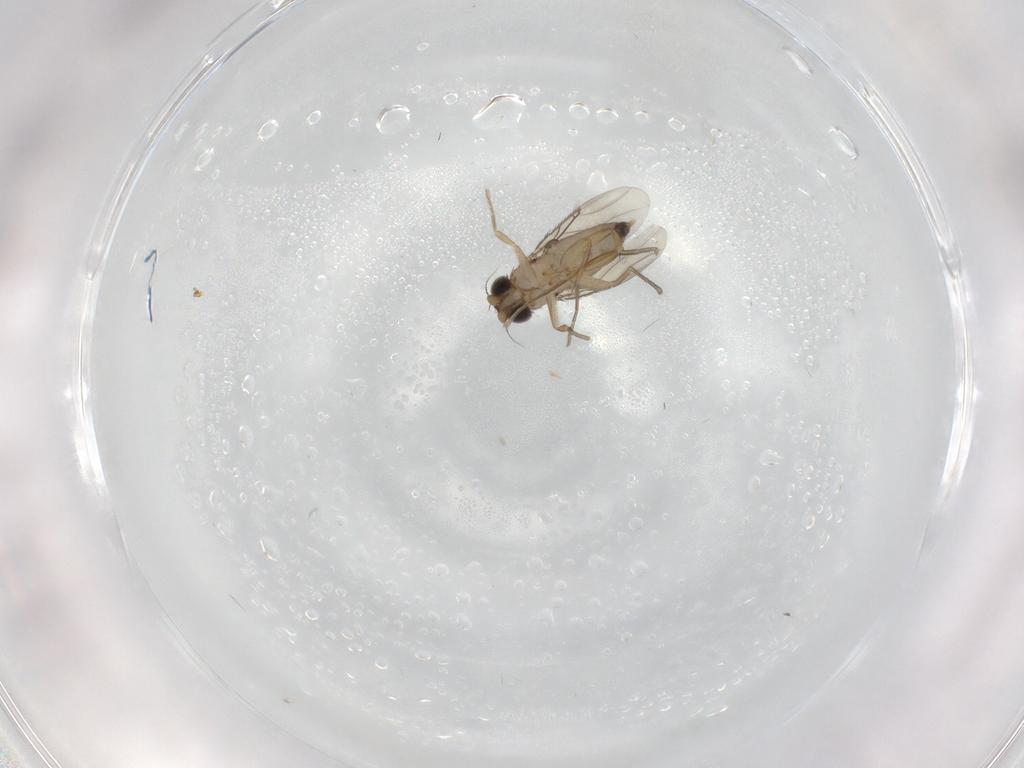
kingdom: Animalia
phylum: Arthropoda
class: Insecta
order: Diptera
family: Phoridae
